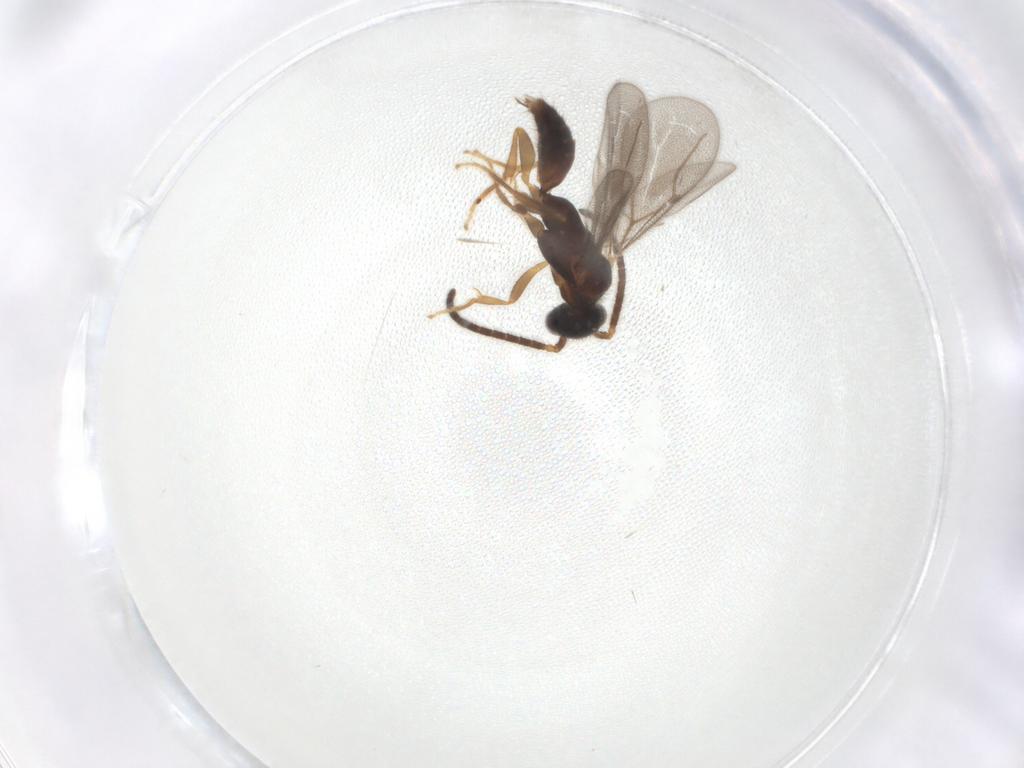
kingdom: Animalia
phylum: Arthropoda
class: Insecta
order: Hymenoptera
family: Bethylidae
